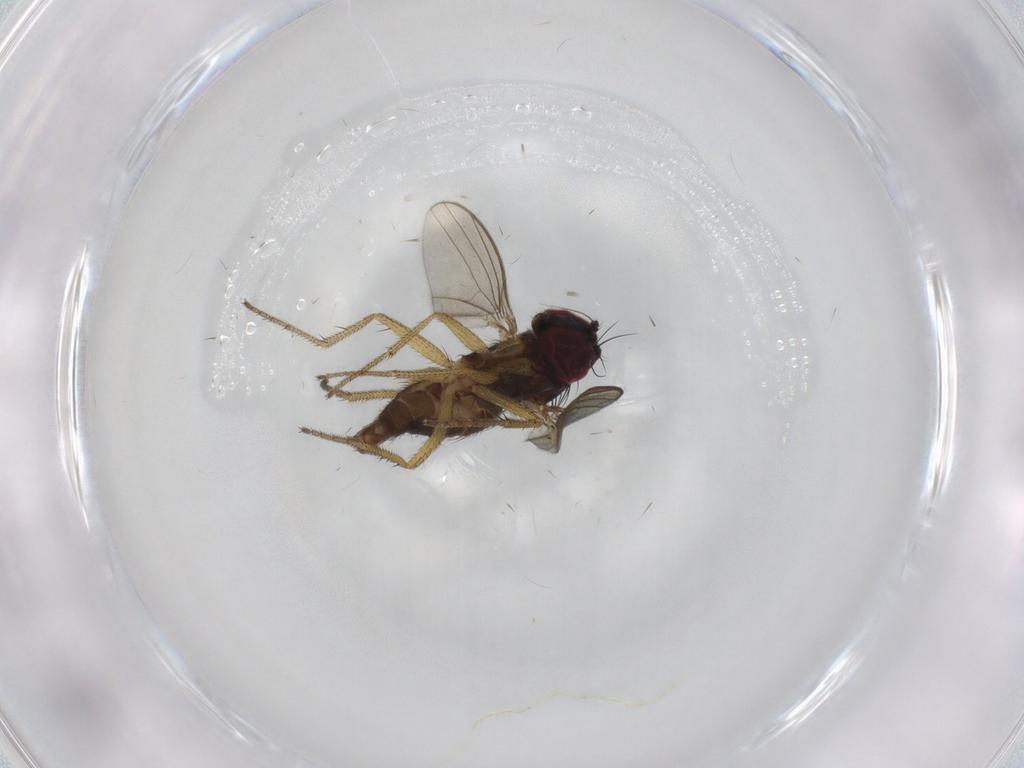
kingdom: Animalia
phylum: Arthropoda
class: Insecta
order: Diptera
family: Dolichopodidae
